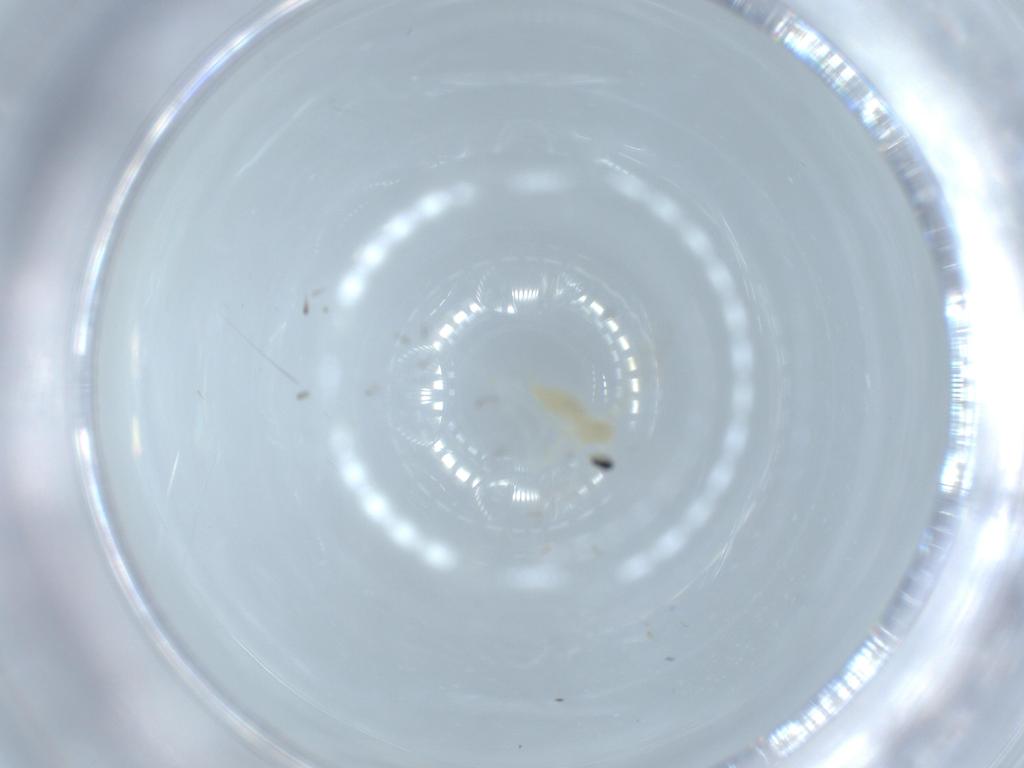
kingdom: Animalia
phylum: Arthropoda
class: Insecta
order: Diptera
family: Cecidomyiidae
